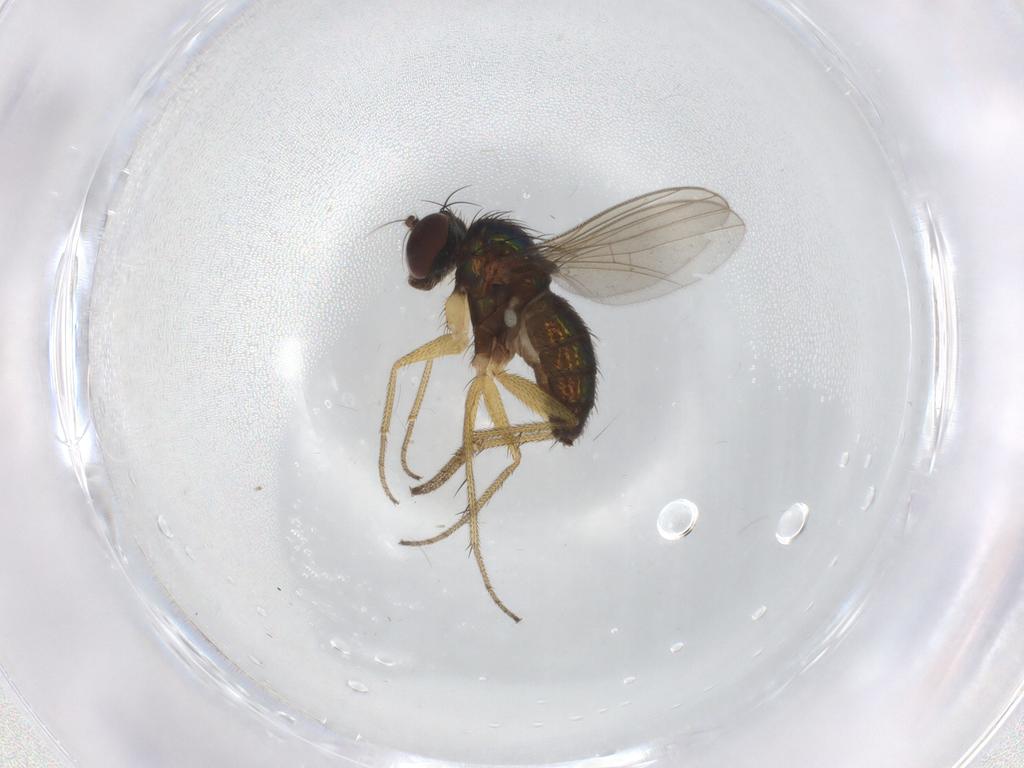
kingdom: Animalia
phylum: Arthropoda
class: Insecta
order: Diptera
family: Dolichopodidae
